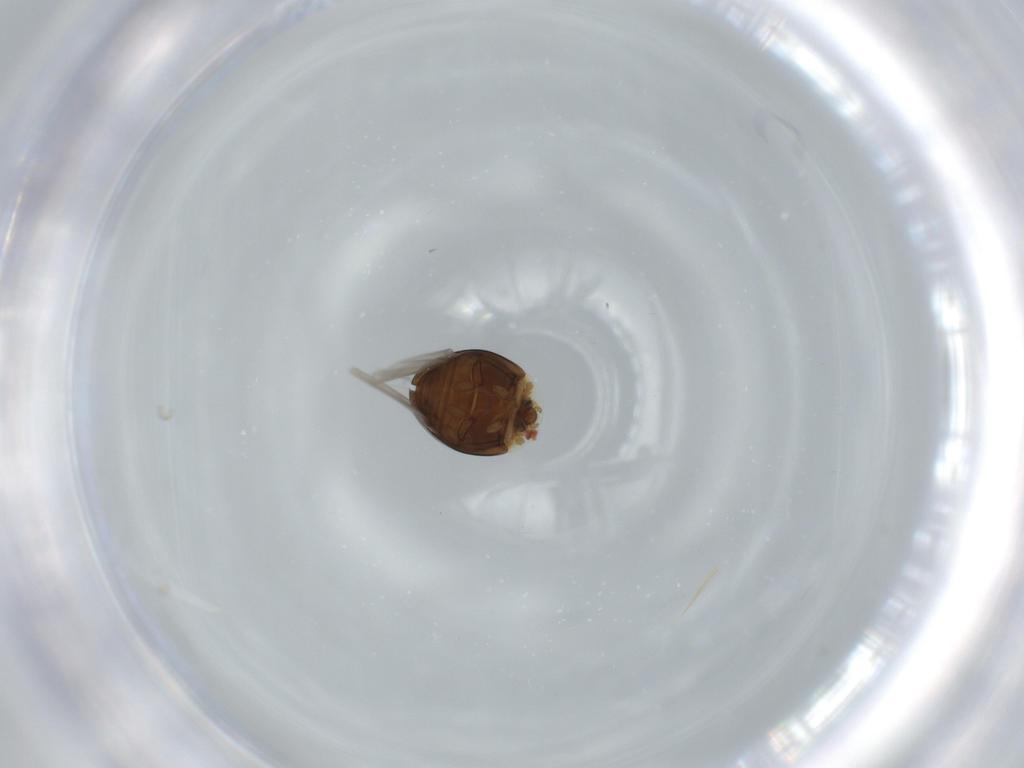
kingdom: Animalia
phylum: Arthropoda
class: Insecta
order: Coleoptera
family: Corylophidae
